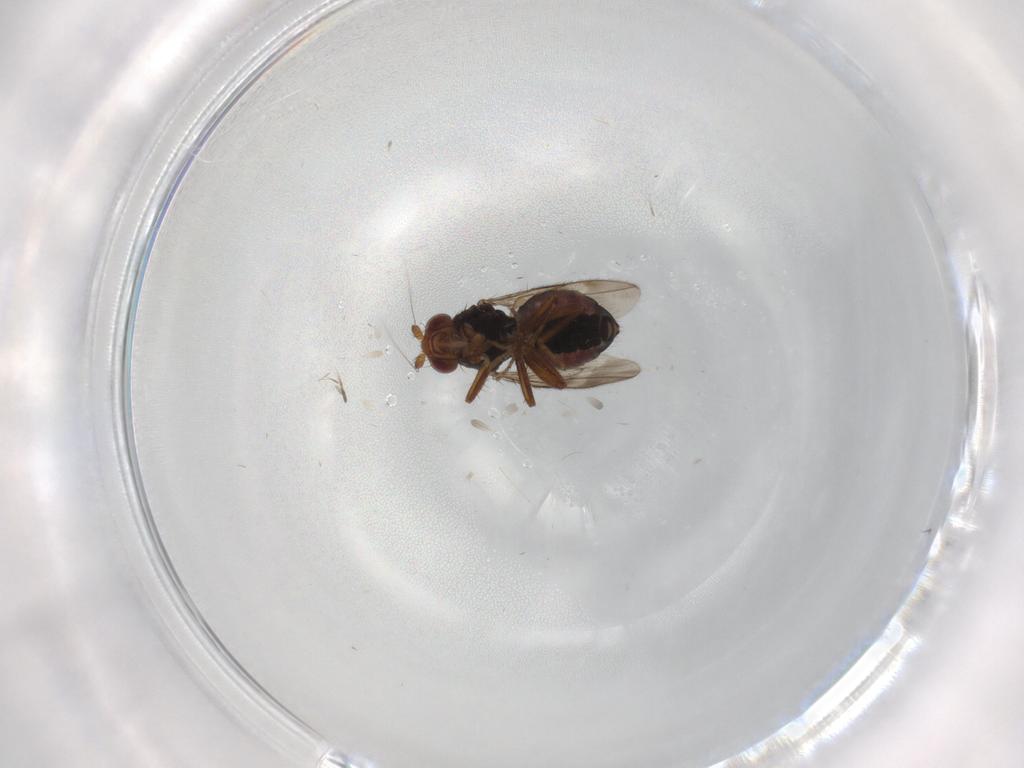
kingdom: Animalia
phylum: Arthropoda
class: Insecta
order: Diptera
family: Sphaeroceridae
